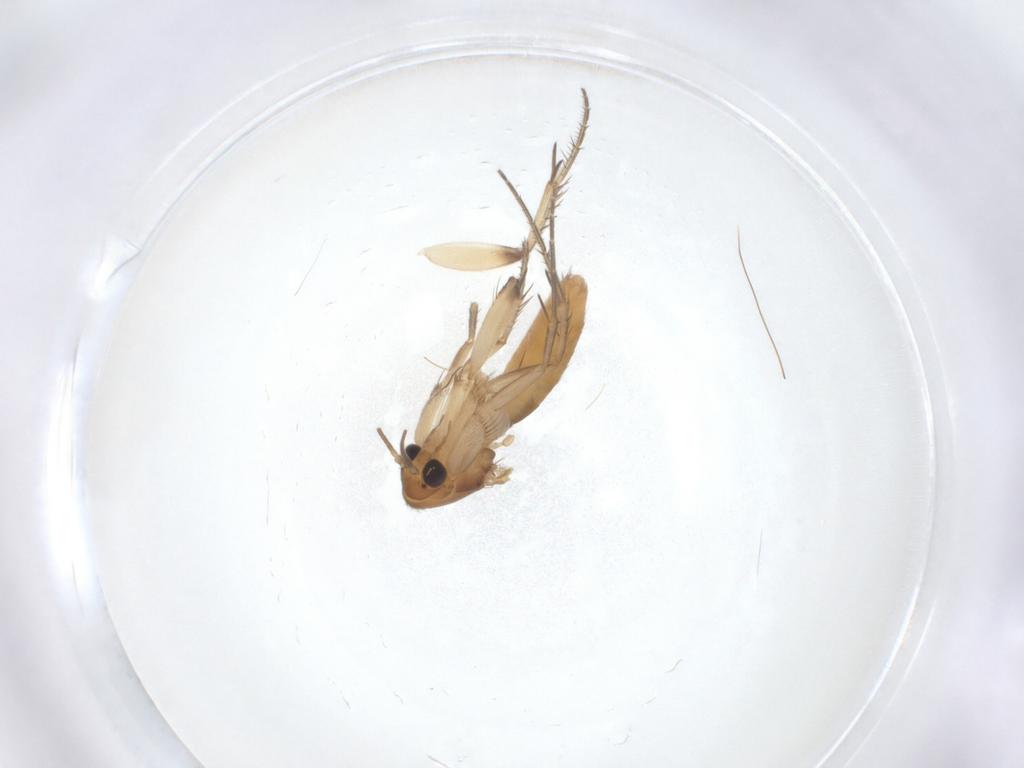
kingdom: Animalia
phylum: Arthropoda
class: Insecta
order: Diptera
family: Mycetophilidae
